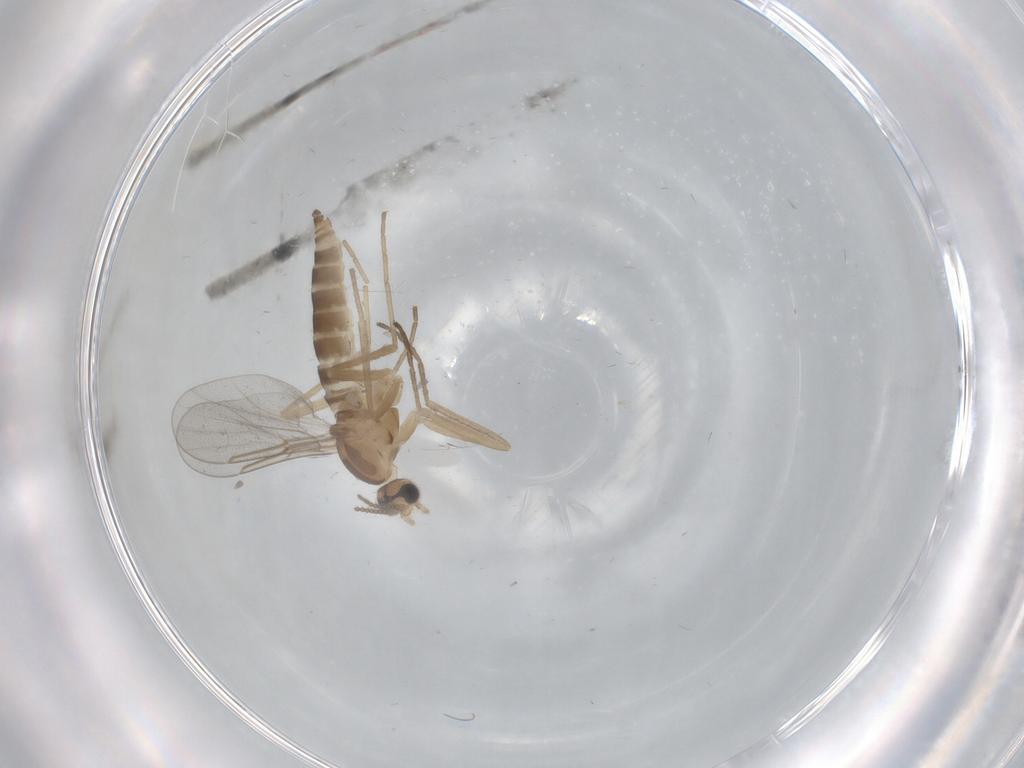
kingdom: Animalia
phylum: Arthropoda
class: Insecta
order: Diptera
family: Cecidomyiidae
